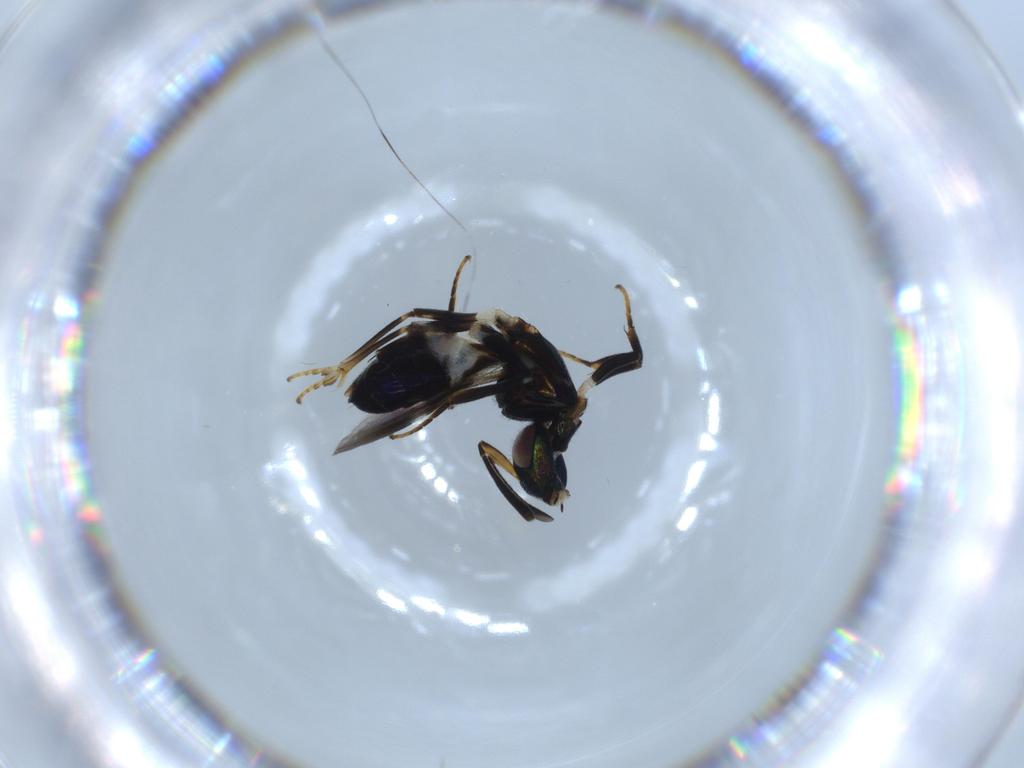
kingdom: Animalia
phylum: Arthropoda
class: Insecta
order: Hymenoptera
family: Eupelmidae
